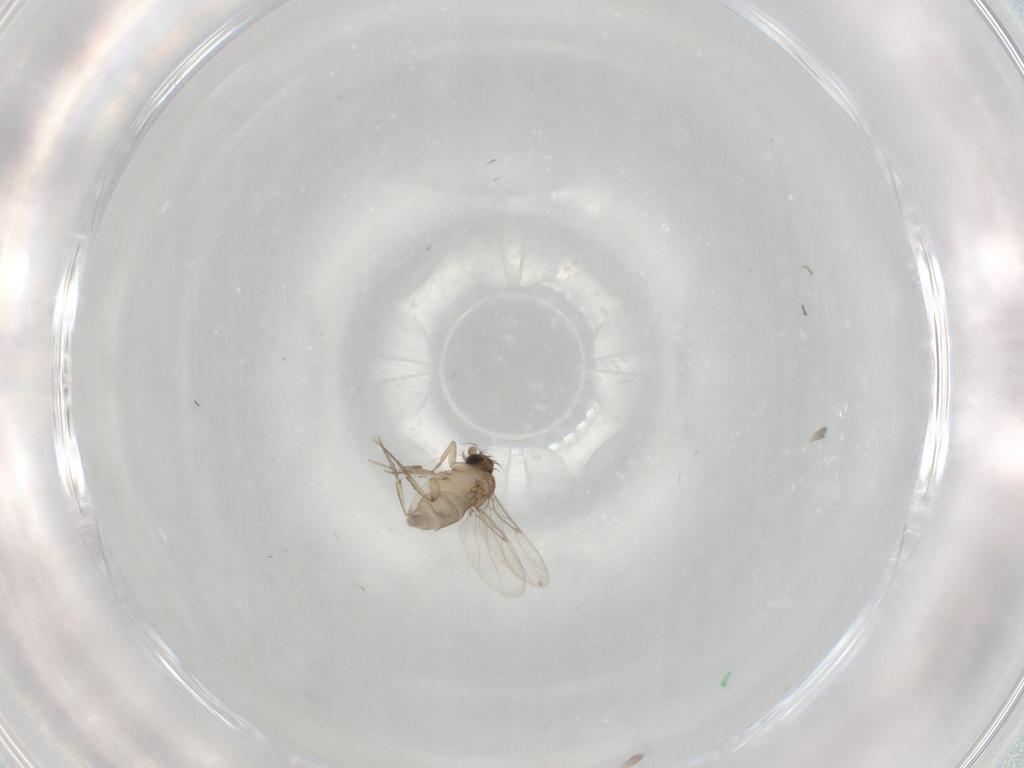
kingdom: Animalia
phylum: Arthropoda
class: Insecta
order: Diptera
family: Phoridae
